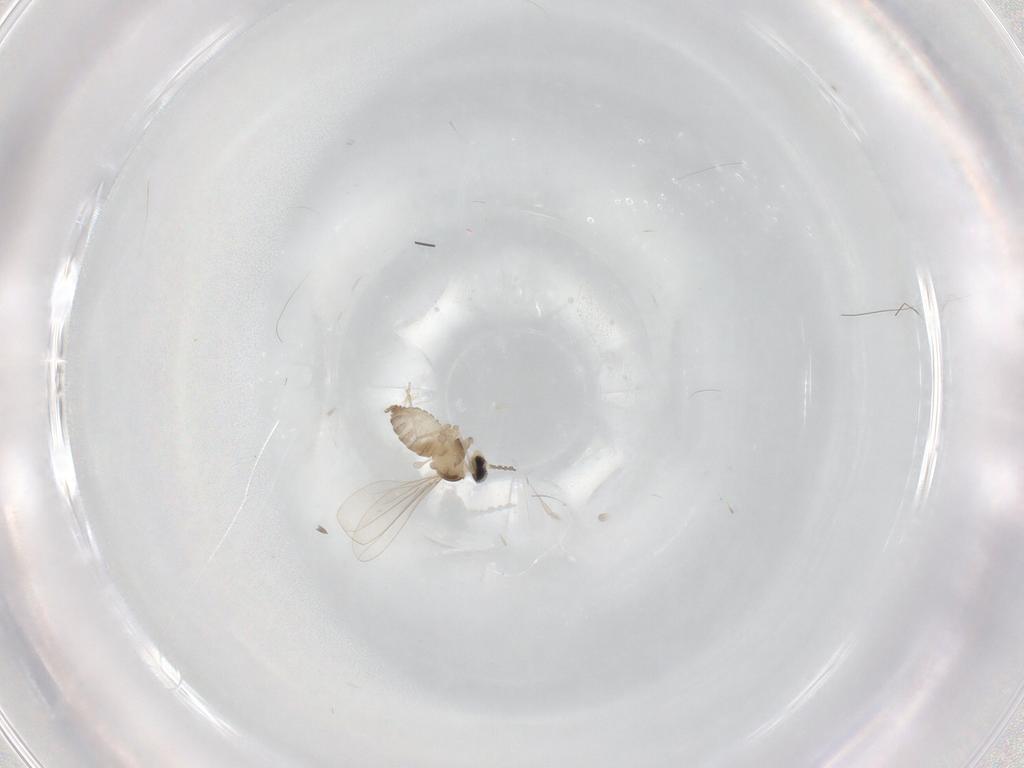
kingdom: Animalia
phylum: Arthropoda
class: Insecta
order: Diptera
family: Cecidomyiidae
